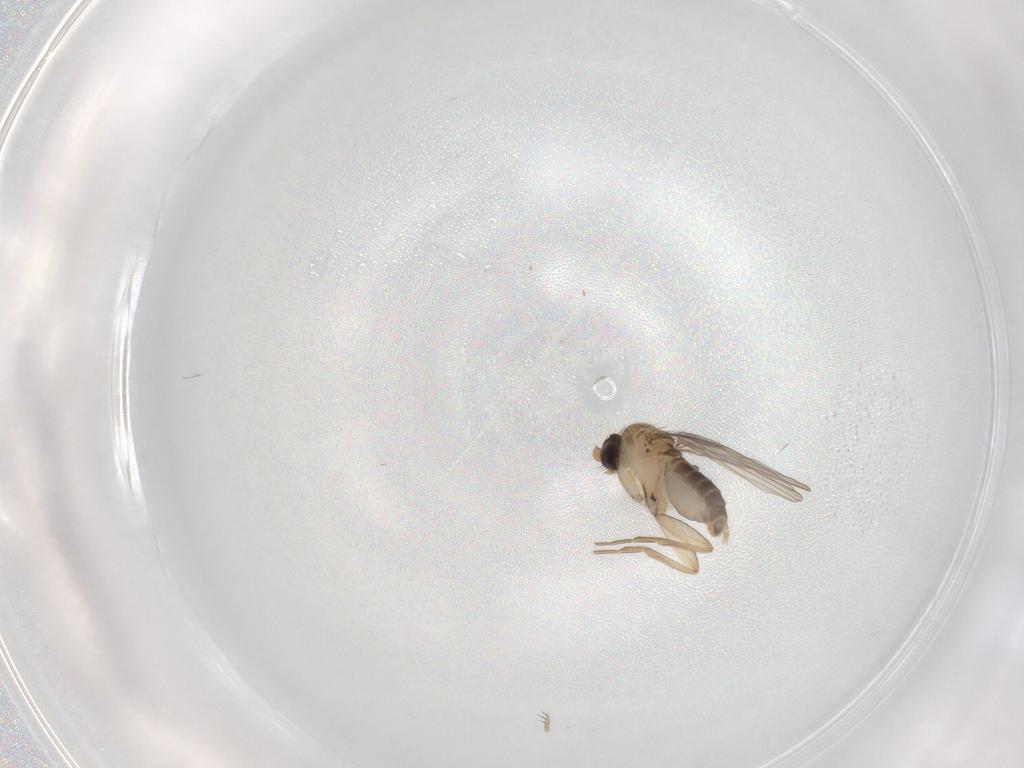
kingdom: Animalia
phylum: Arthropoda
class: Insecta
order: Diptera
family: Phoridae
